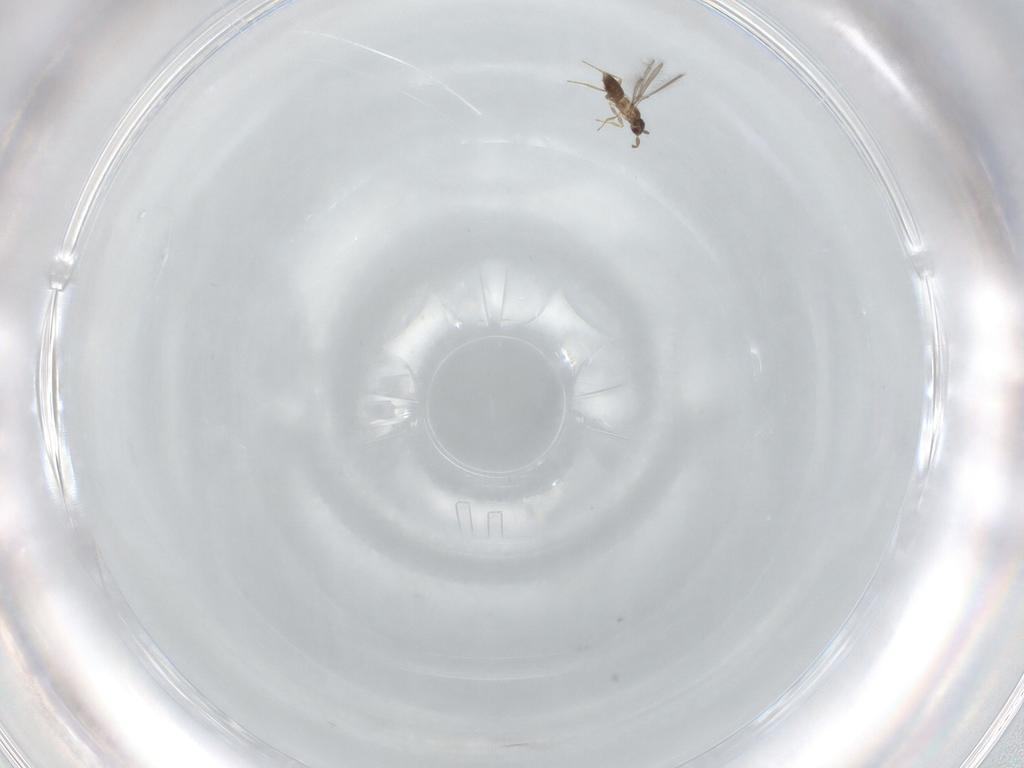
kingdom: Animalia
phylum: Arthropoda
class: Insecta
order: Hymenoptera
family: Mymaridae
